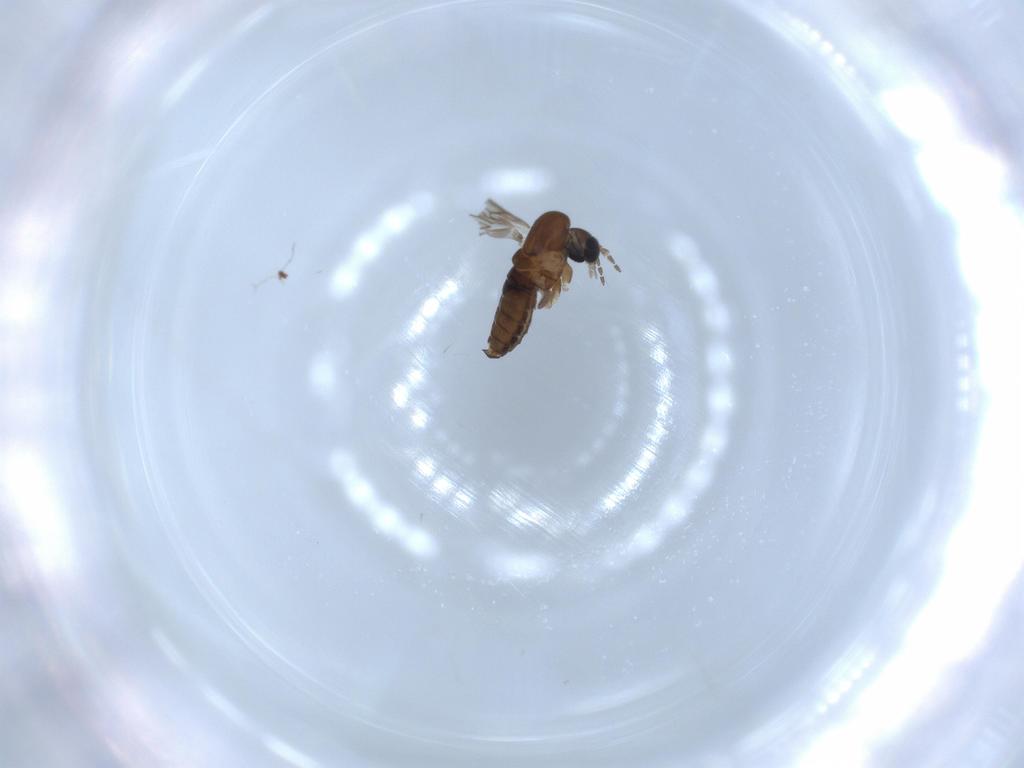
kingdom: Animalia
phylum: Arthropoda
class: Insecta
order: Diptera
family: Psychodidae
